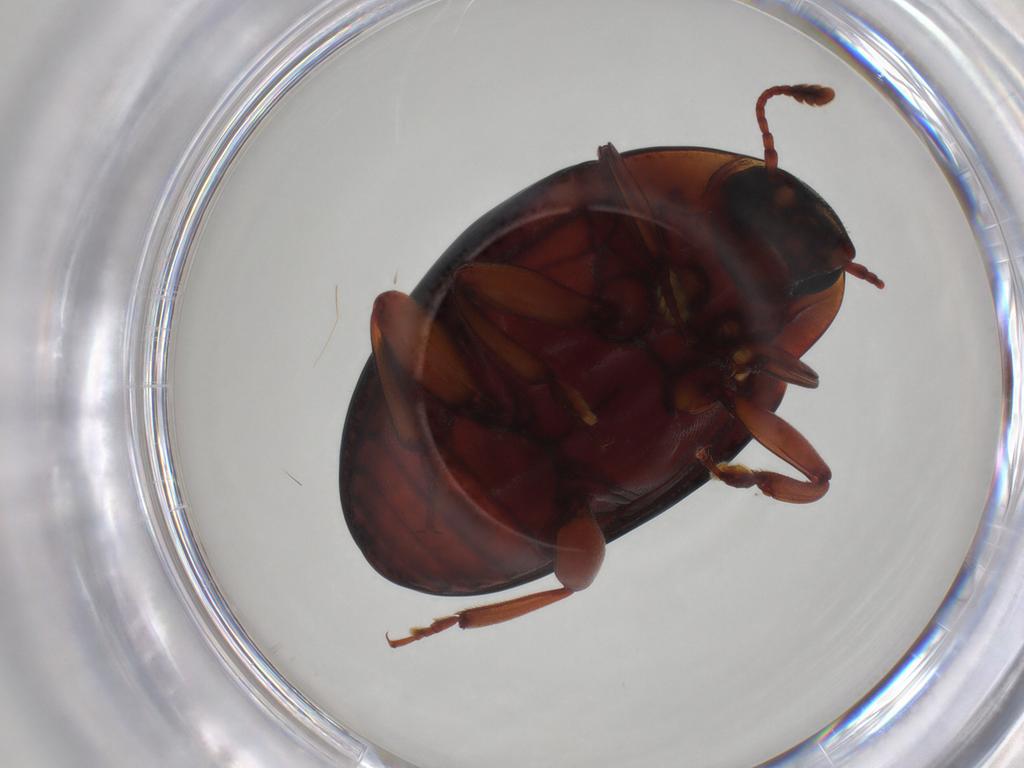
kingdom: Animalia
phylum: Arthropoda
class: Insecta
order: Coleoptera
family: Zopheridae
